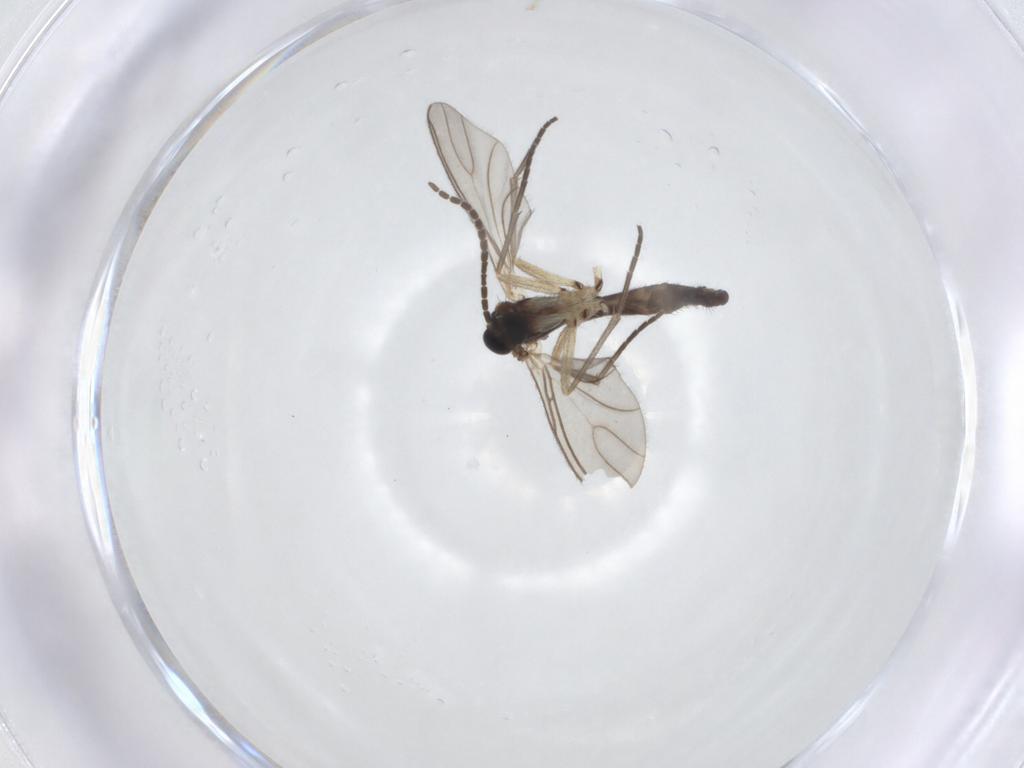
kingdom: Animalia
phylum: Arthropoda
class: Insecta
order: Diptera
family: Sciaridae
